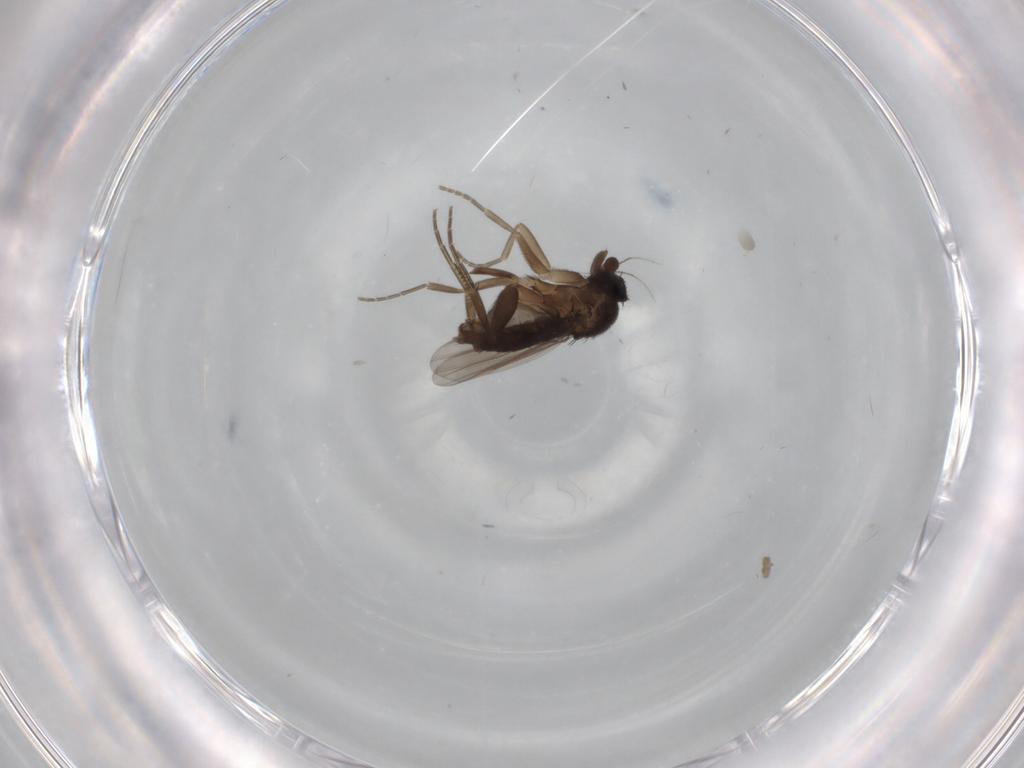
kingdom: Animalia
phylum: Arthropoda
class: Insecta
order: Diptera
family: Phoridae
